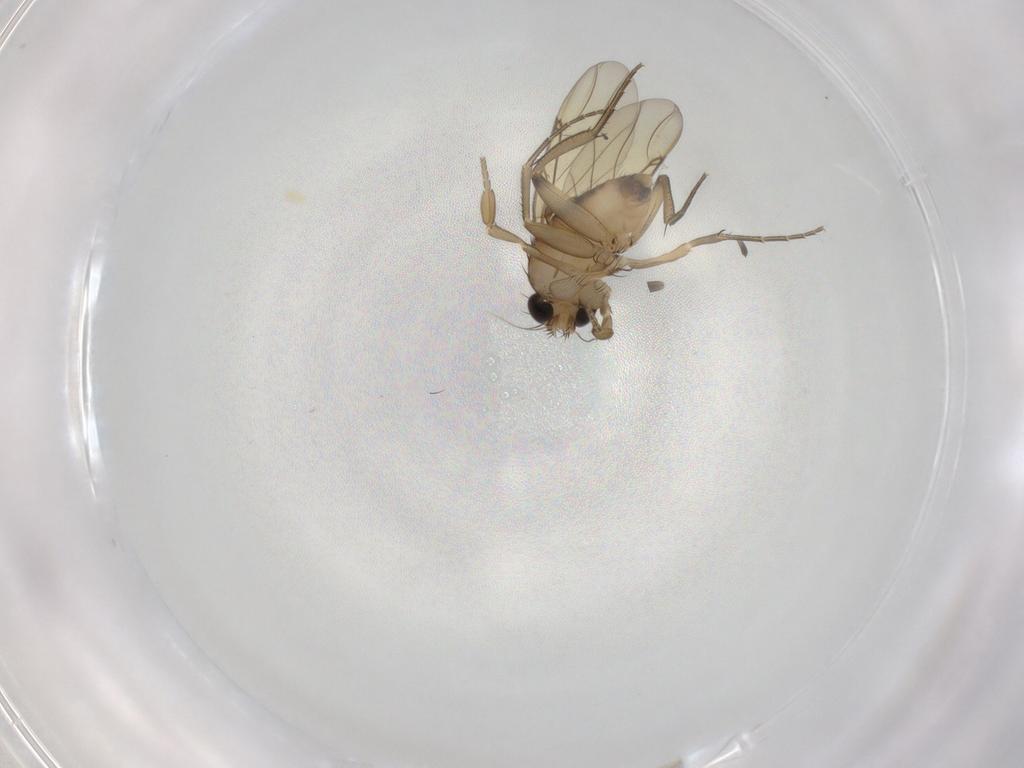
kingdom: Animalia
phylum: Arthropoda
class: Insecta
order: Diptera
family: Phoridae
